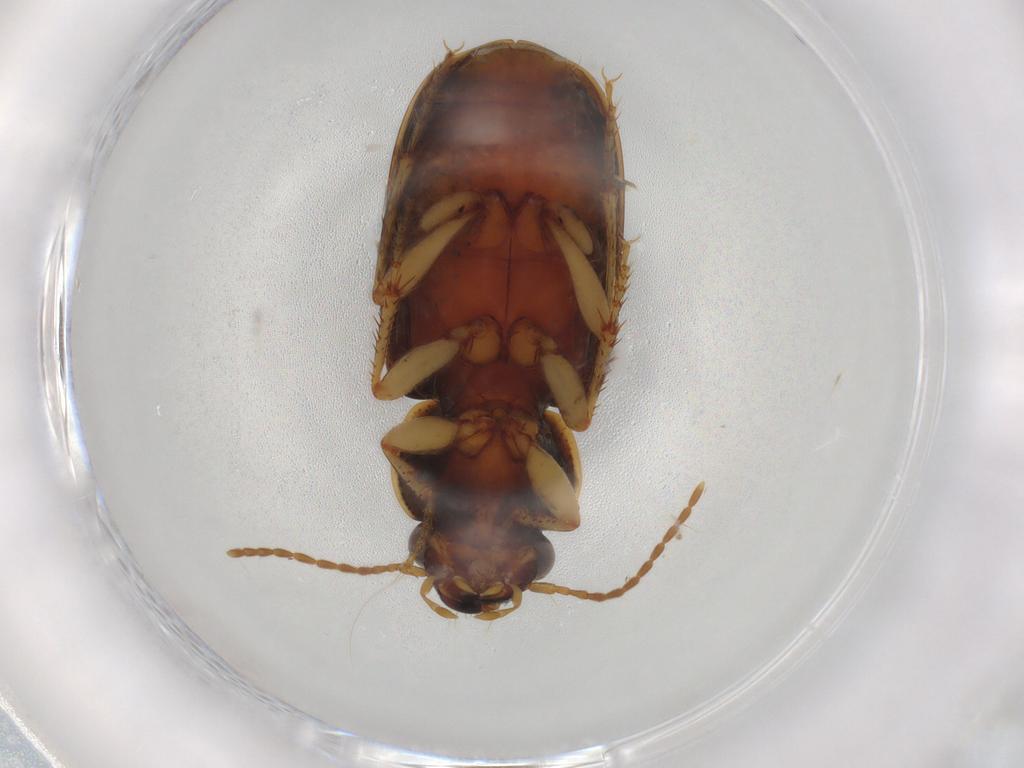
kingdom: Animalia
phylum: Arthropoda
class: Insecta
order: Coleoptera
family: Carabidae
